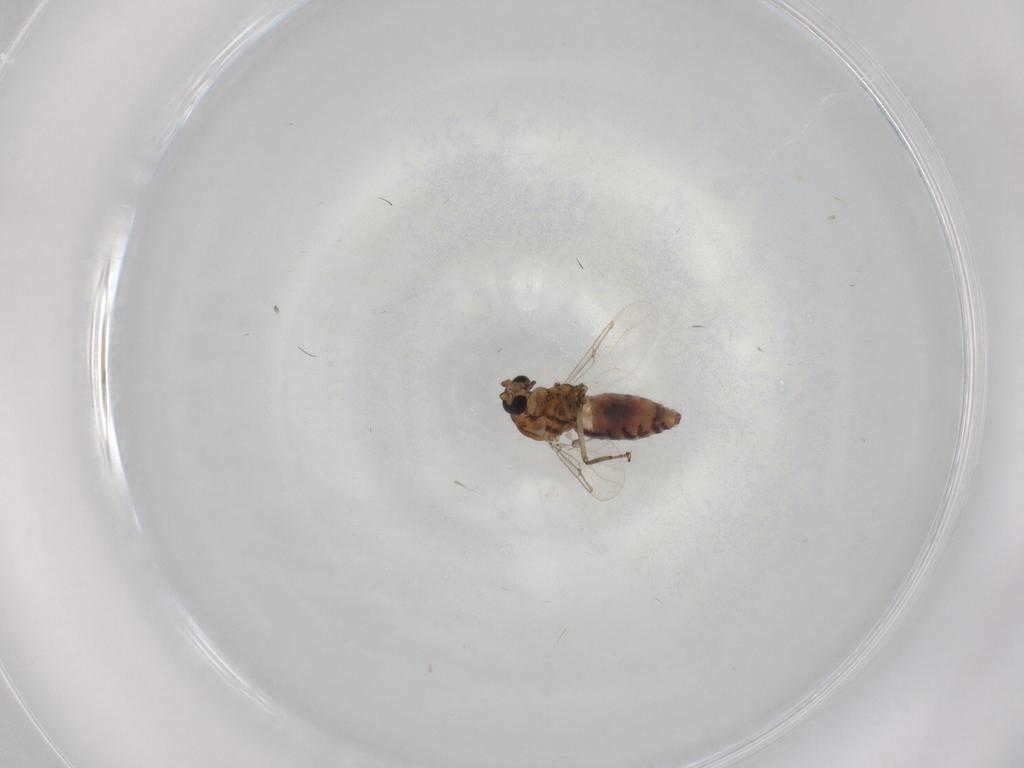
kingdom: Animalia
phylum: Arthropoda
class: Insecta
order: Diptera
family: Ceratopogonidae
